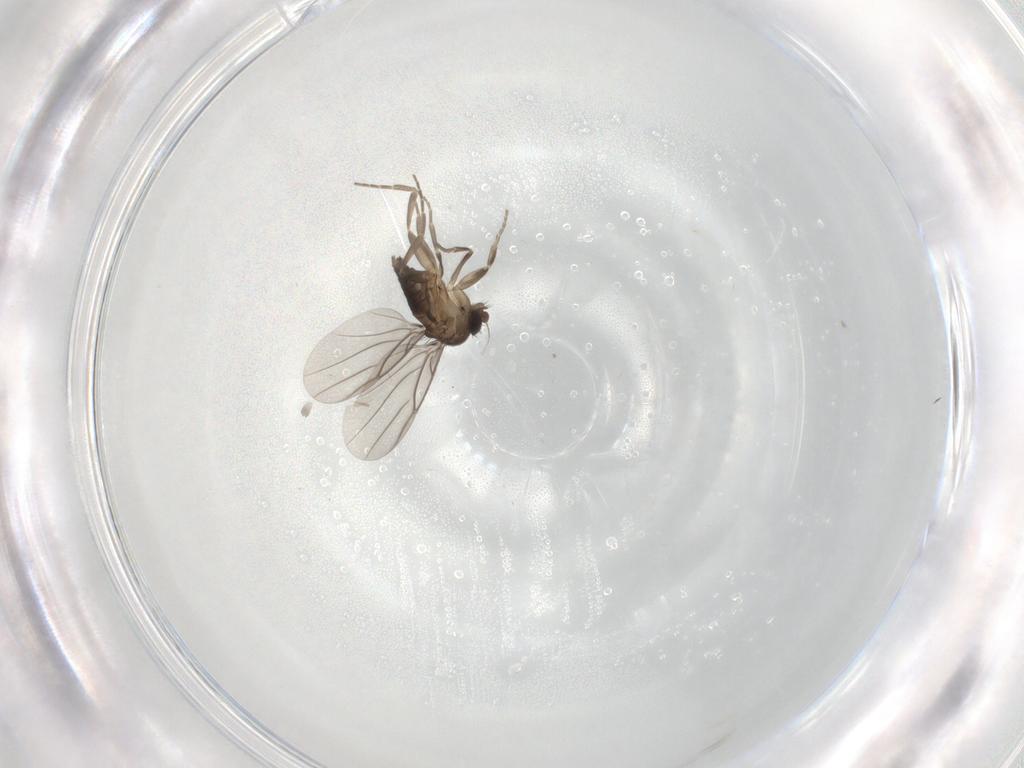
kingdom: Animalia
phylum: Arthropoda
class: Insecta
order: Diptera
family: Phoridae
